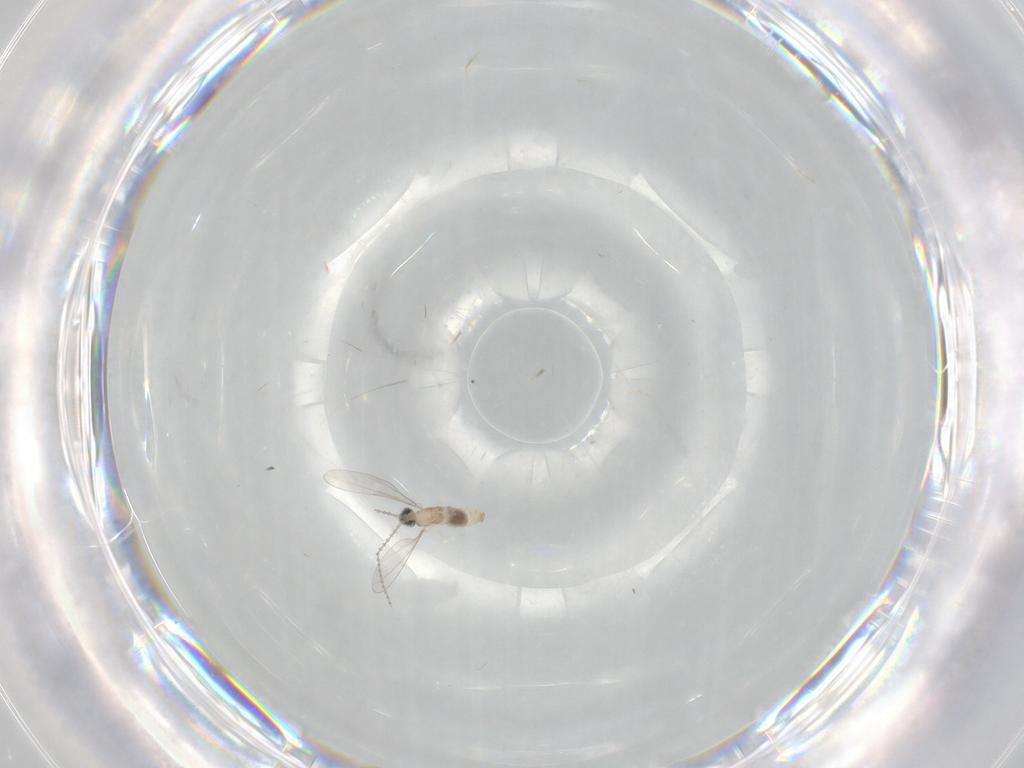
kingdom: Animalia
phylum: Arthropoda
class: Insecta
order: Diptera
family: Cecidomyiidae
